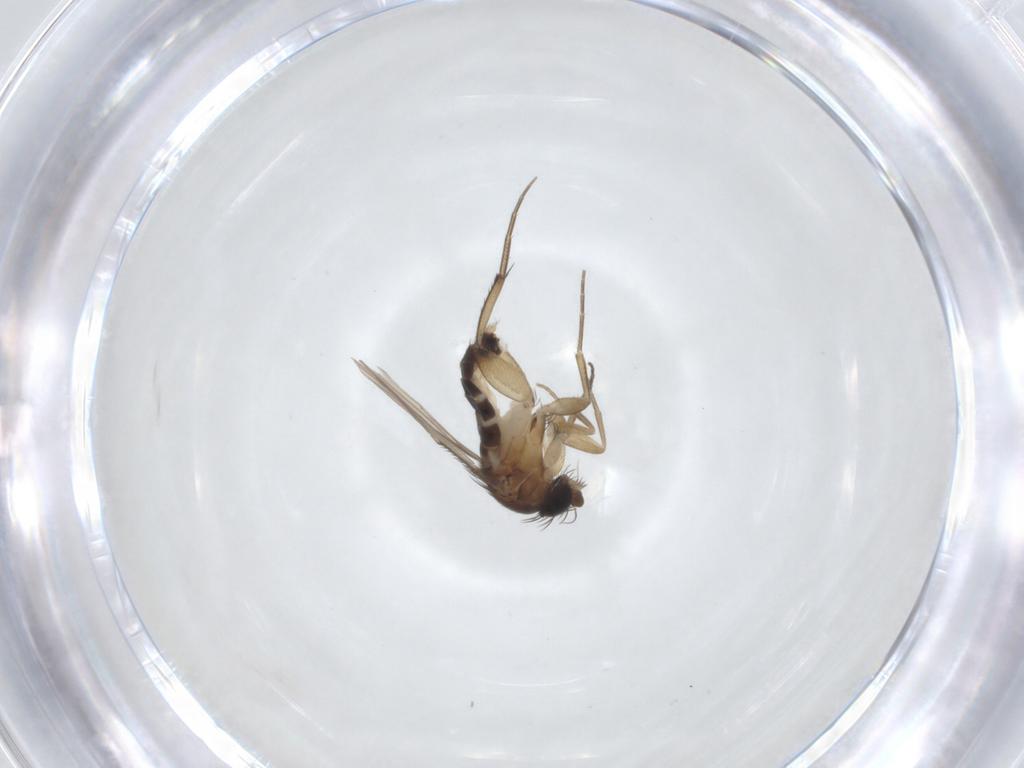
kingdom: Animalia
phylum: Arthropoda
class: Insecta
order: Diptera
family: Phoridae
